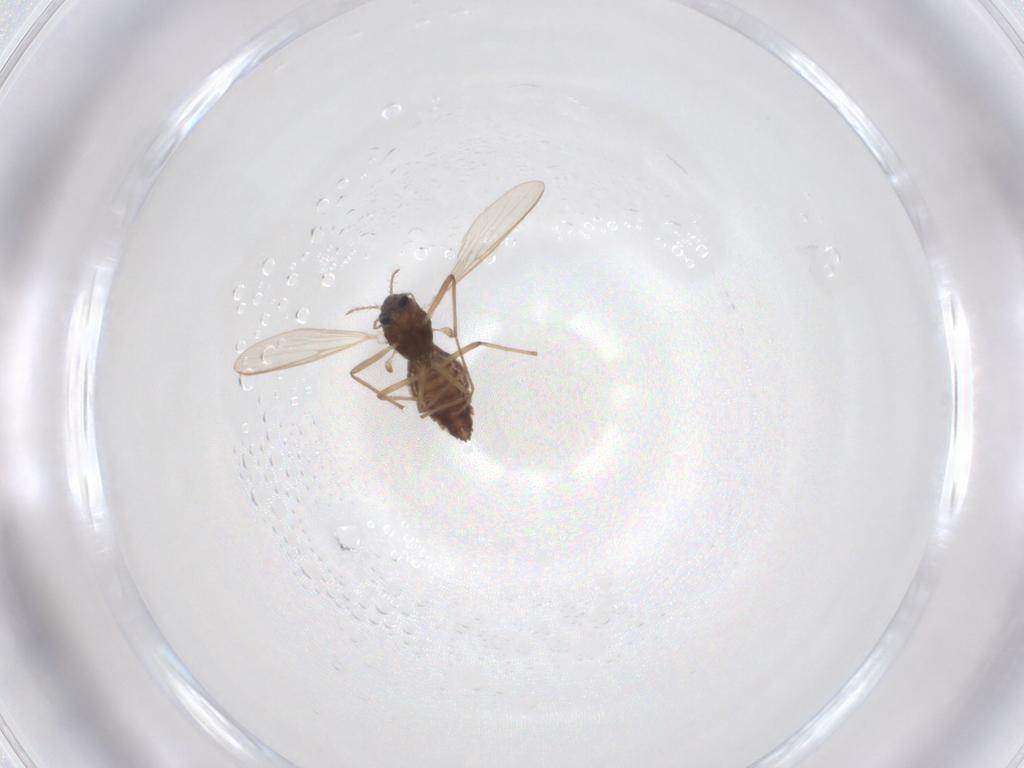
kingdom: Animalia
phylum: Arthropoda
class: Insecta
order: Diptera
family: Chironomidae
